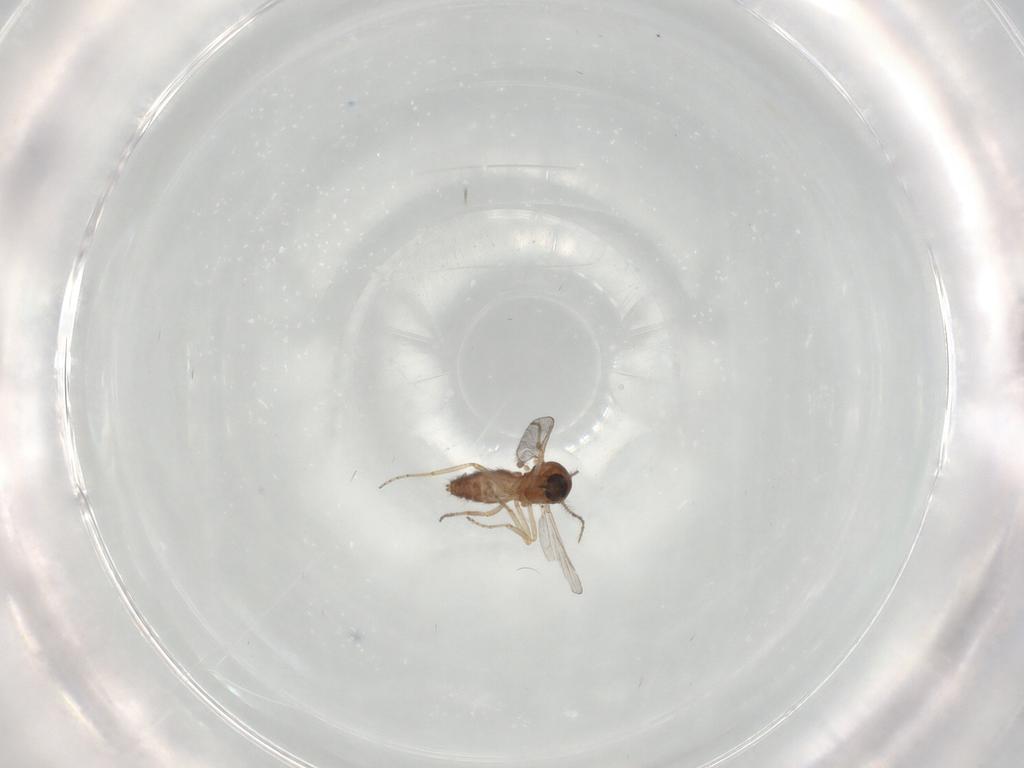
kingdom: Animalia
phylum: Arthropoda
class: Insecta
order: Diptera
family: Ceratopogonidae
